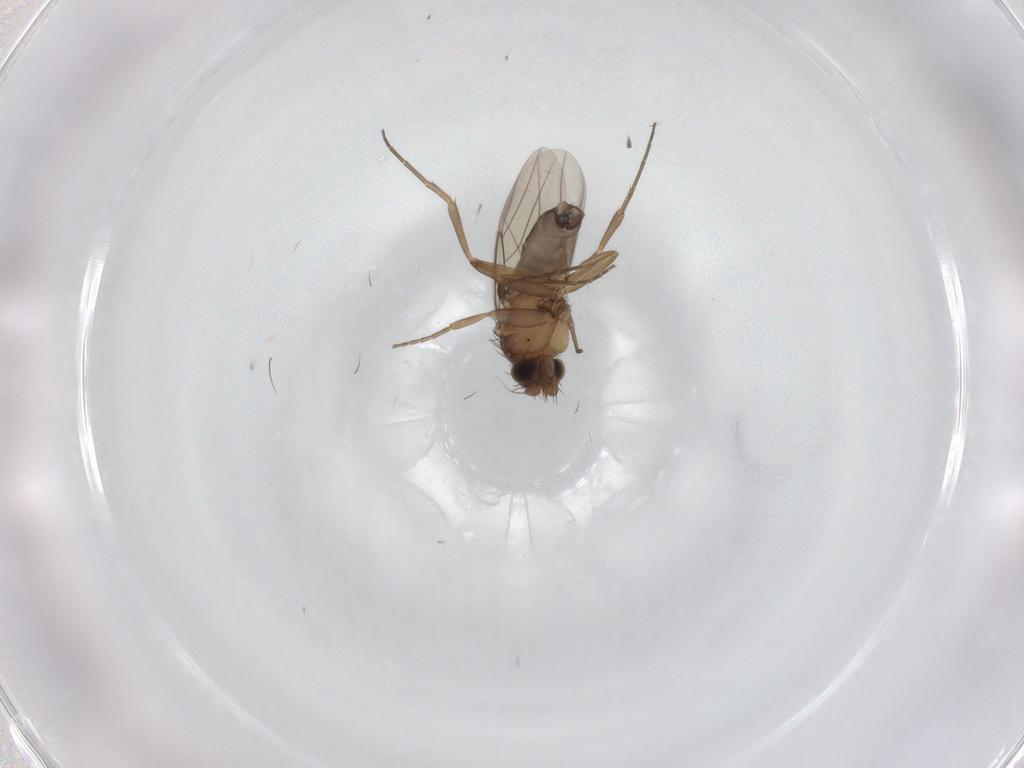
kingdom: Animalia
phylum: Arthropoda
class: Insecta
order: Diptera
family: Phoridae
